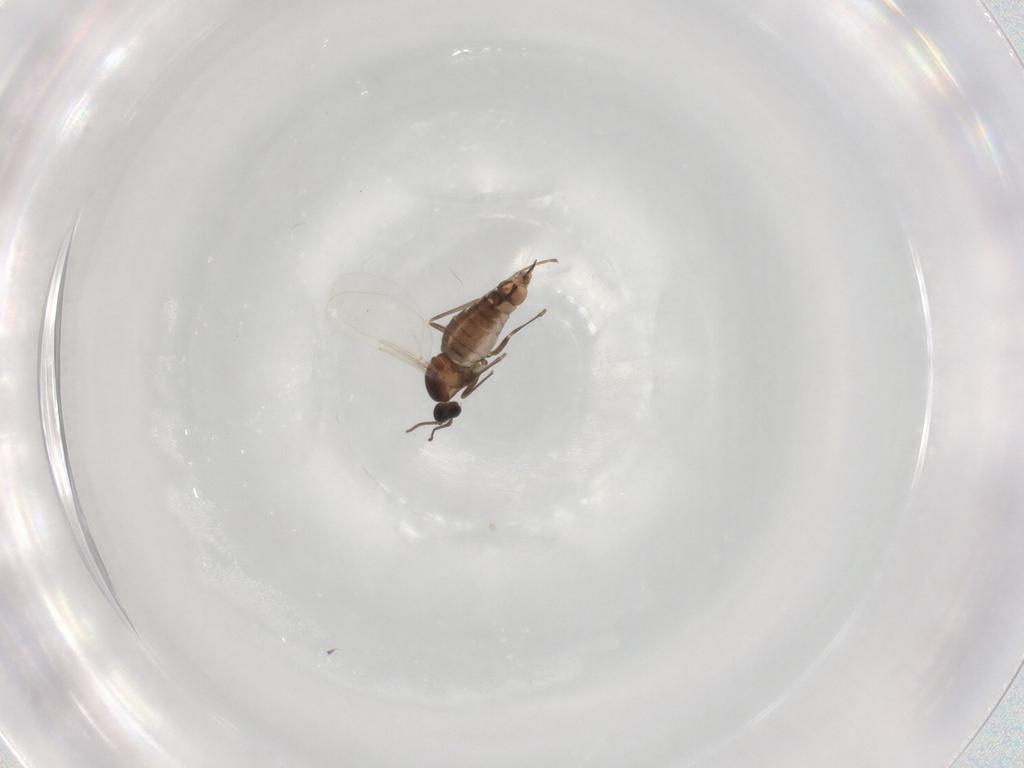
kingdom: Animalia
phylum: Arthropoda
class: Insecta
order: Diptera
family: Cecidomyiidae
